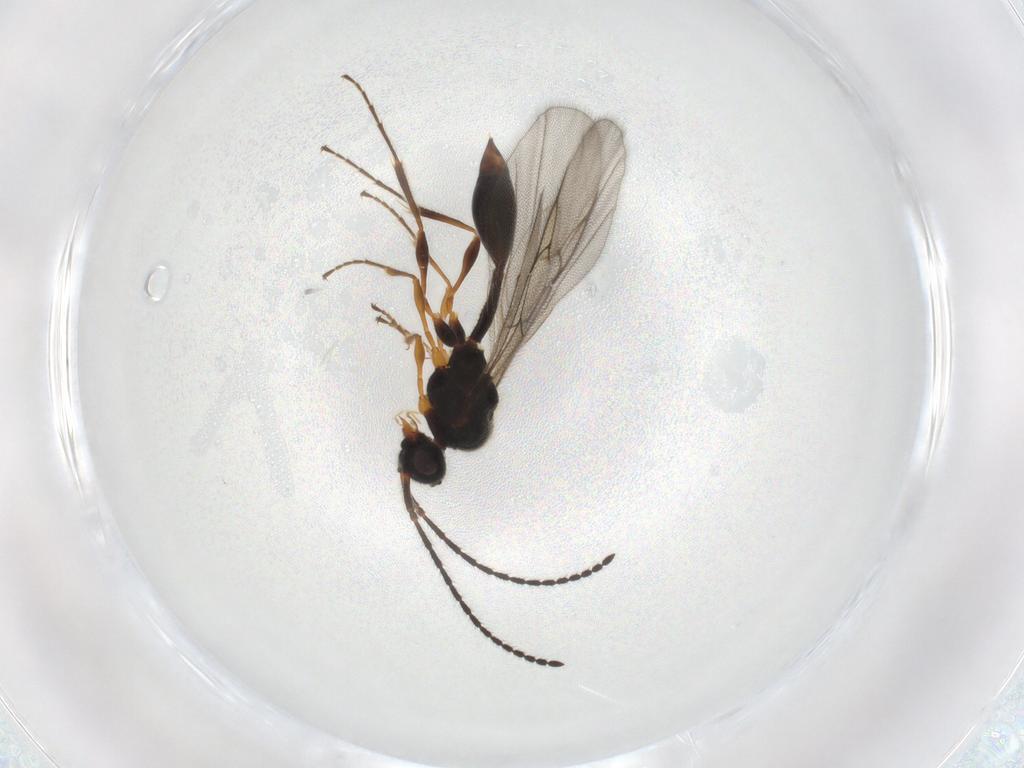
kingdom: Animalia
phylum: Arthropoda
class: Insecta
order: Hymenoptera
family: Diapriidae
